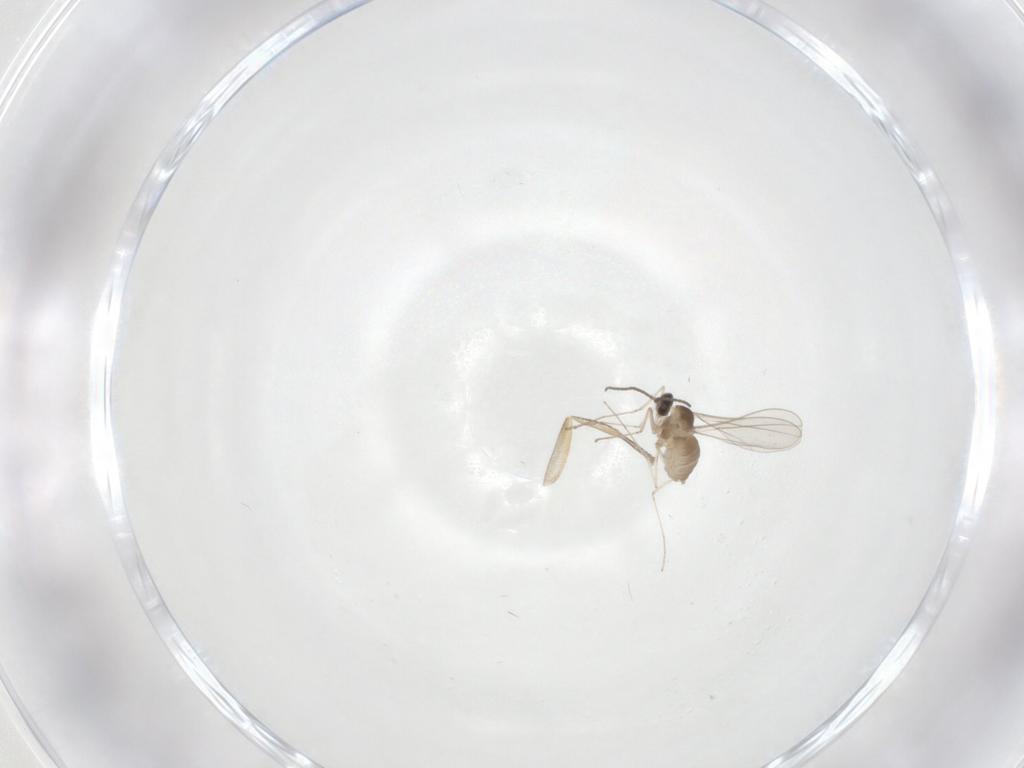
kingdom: Animalia
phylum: Arthropoda
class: Insecta
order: Diptera
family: Cecidomyiidae
